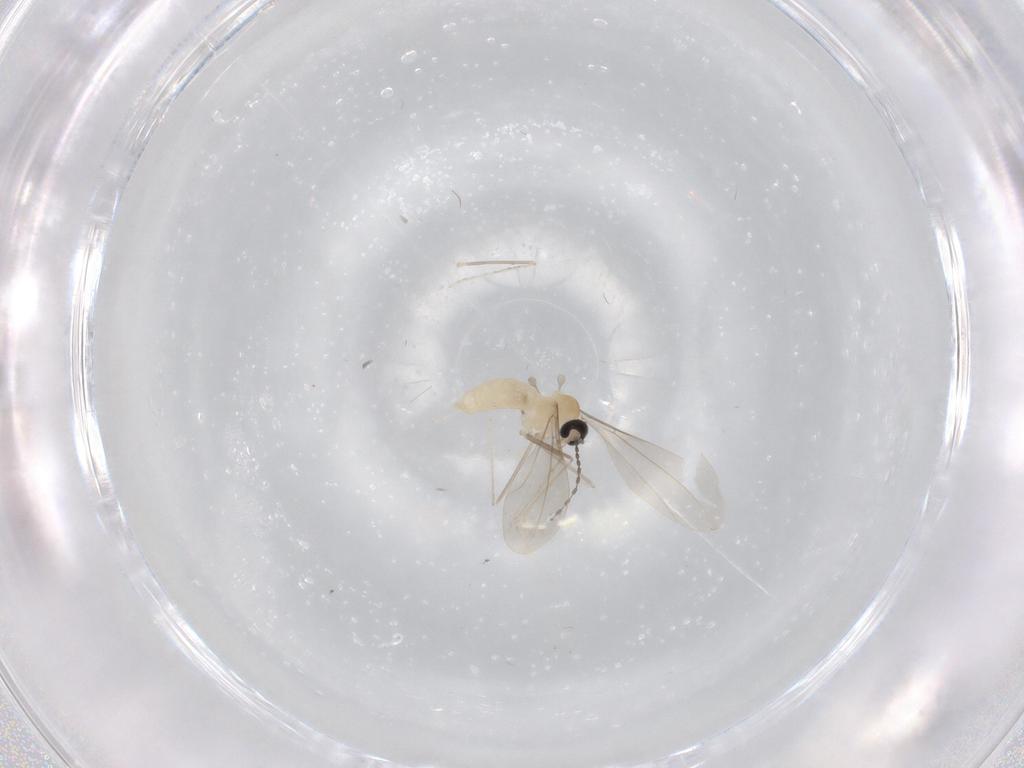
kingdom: Animalia
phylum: Arthropoda
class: Insecta
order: Diptera
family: Cecidomyiidae
